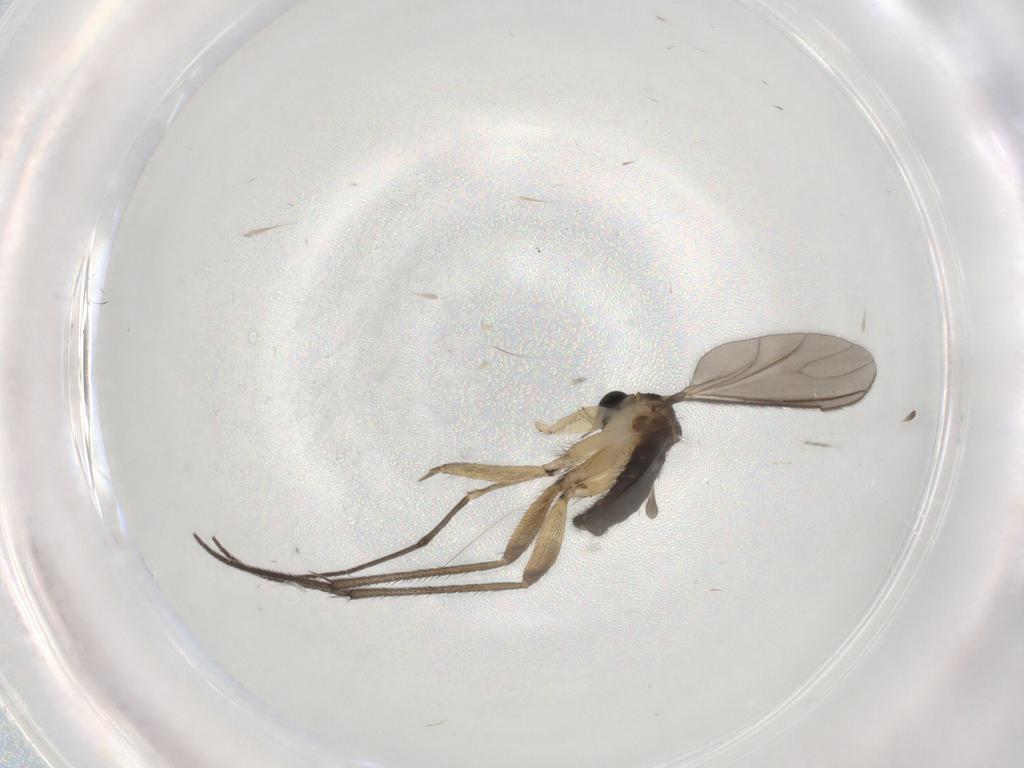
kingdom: Animalia
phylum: Arthropoda
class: Insecta
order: Diptera
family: Sciaridae
